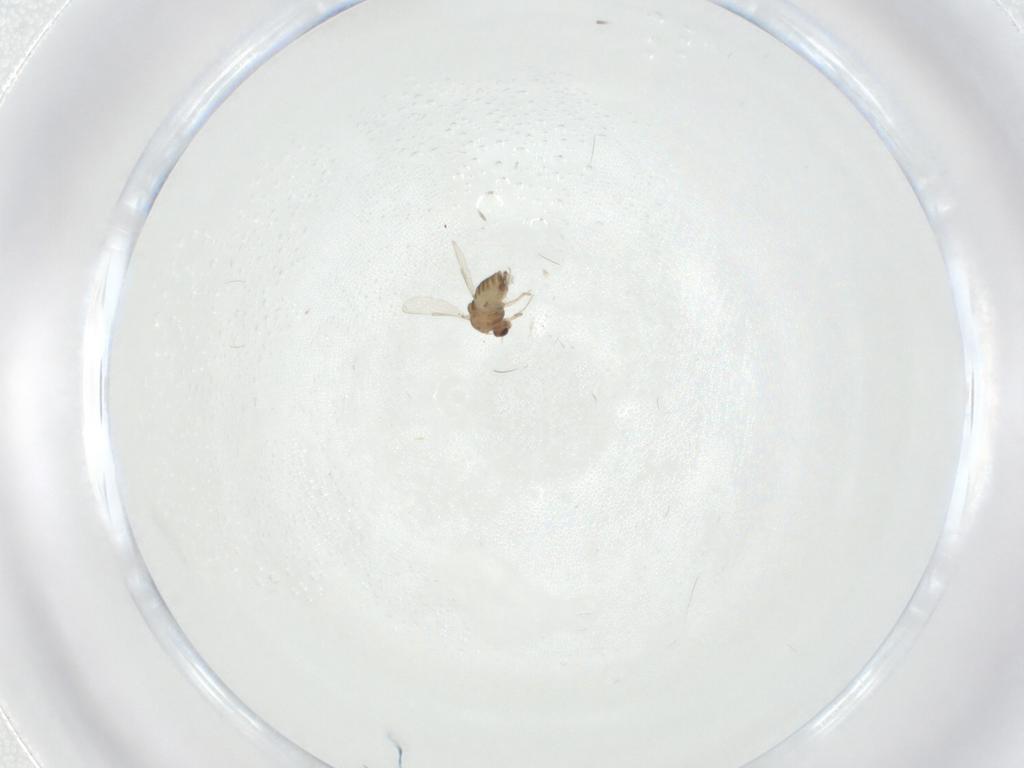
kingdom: Animalia
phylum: Arthropoda
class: Insecta
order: Diptera
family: Chironomidae
